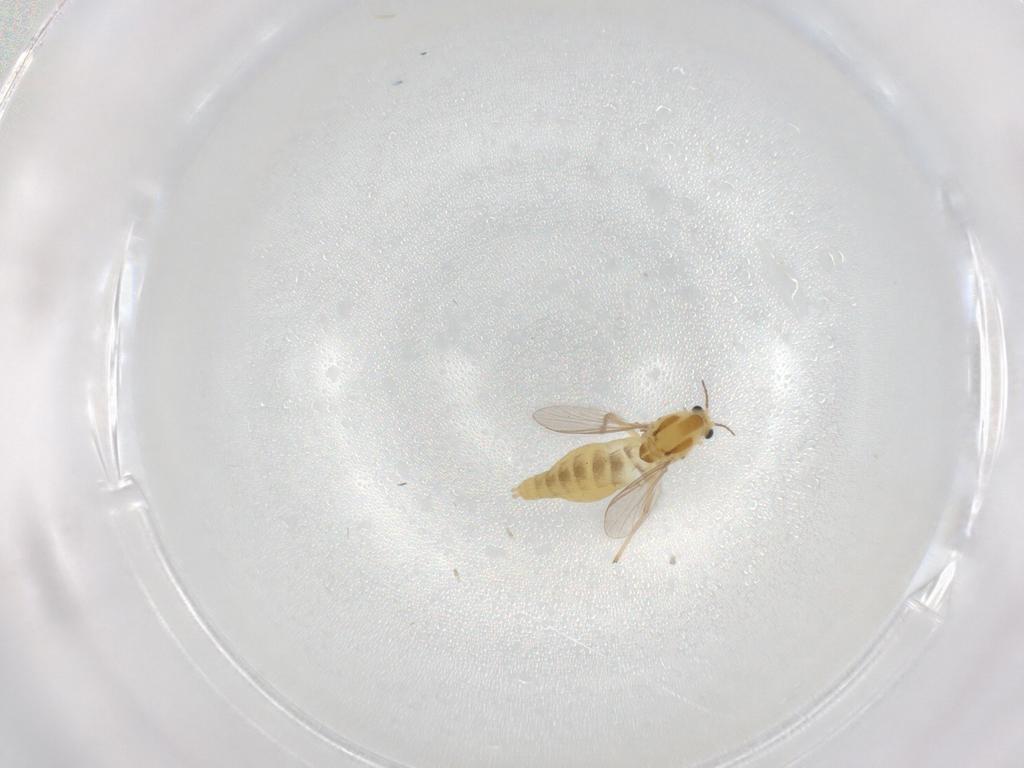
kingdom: Animalia
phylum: Arthropoda
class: Insecta
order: Diptera
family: Chironomidae
